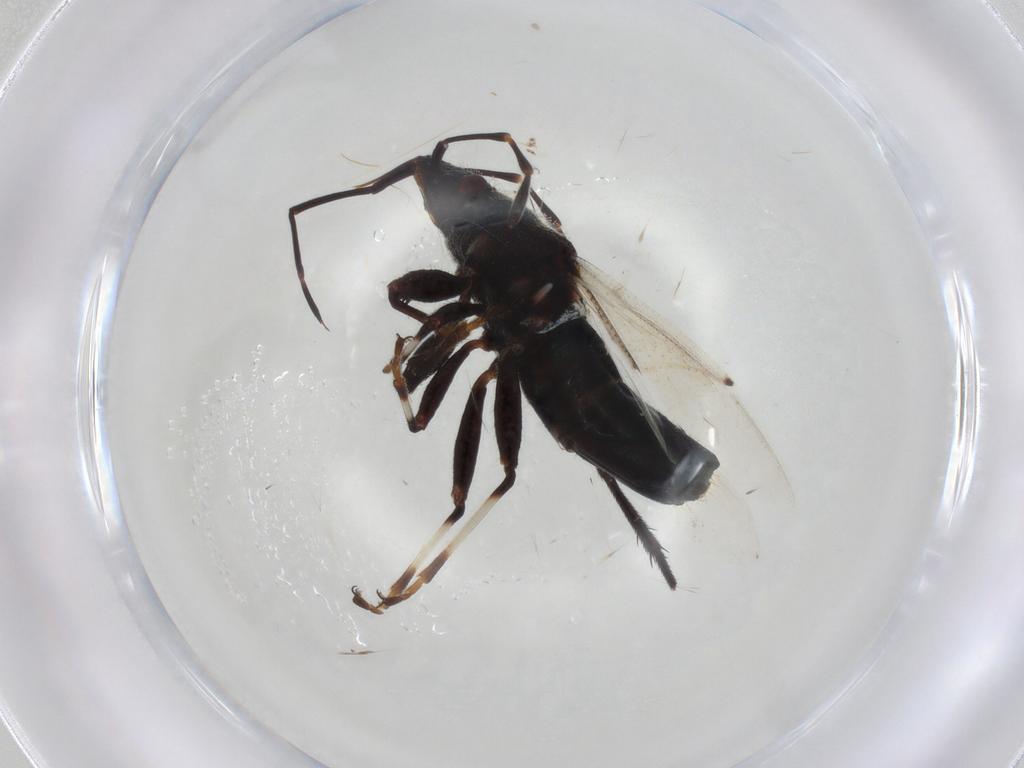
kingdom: Animalia
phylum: Arthropoda
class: Insecta
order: Hemiptera
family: Oxycarenidae
